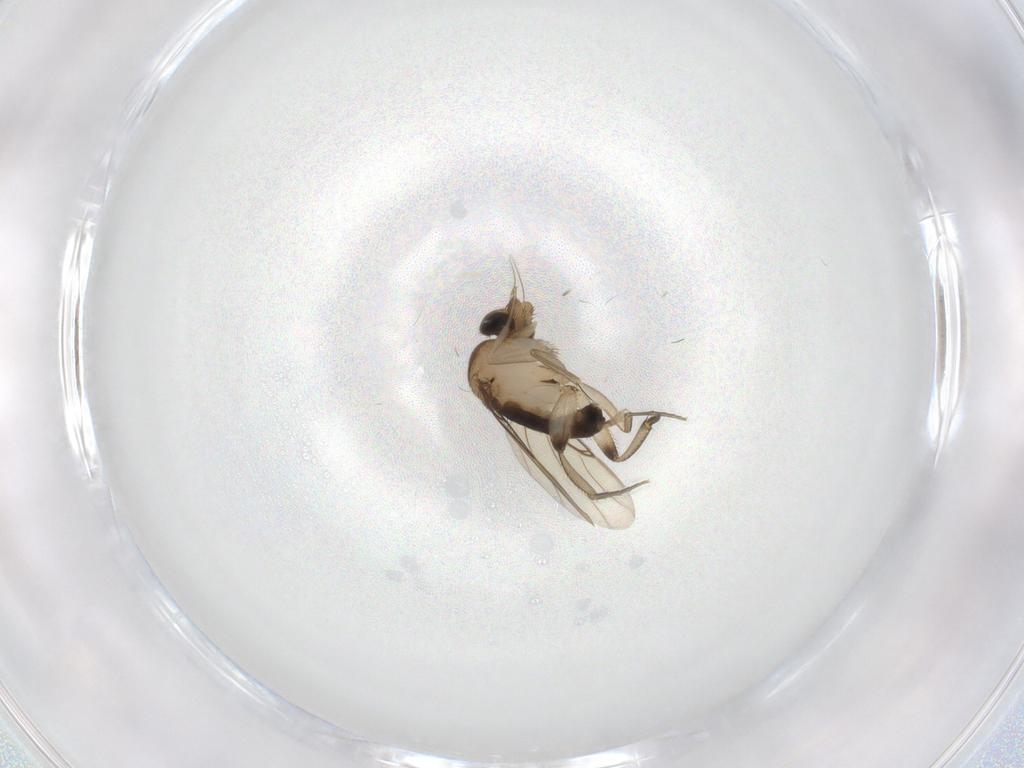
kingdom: Animalia
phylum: Arthropoda
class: Insecta
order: Diptera
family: Phoridae
